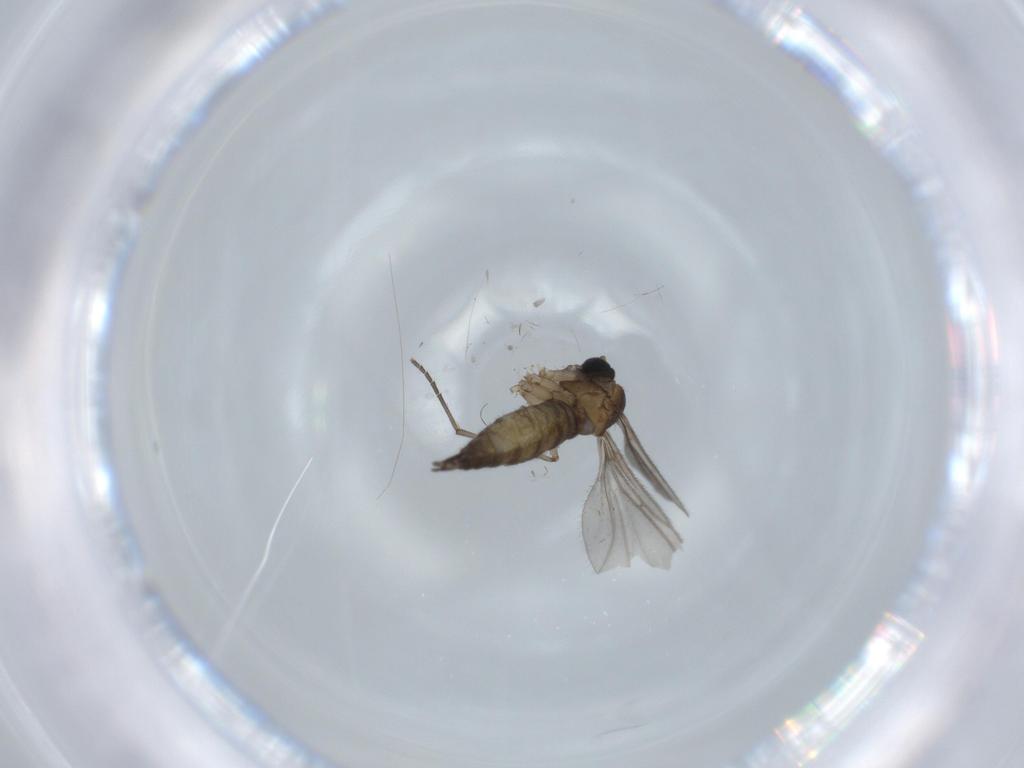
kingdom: Animalia
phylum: Arthropoda
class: Insecta
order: Diptera
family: Sciaridae
